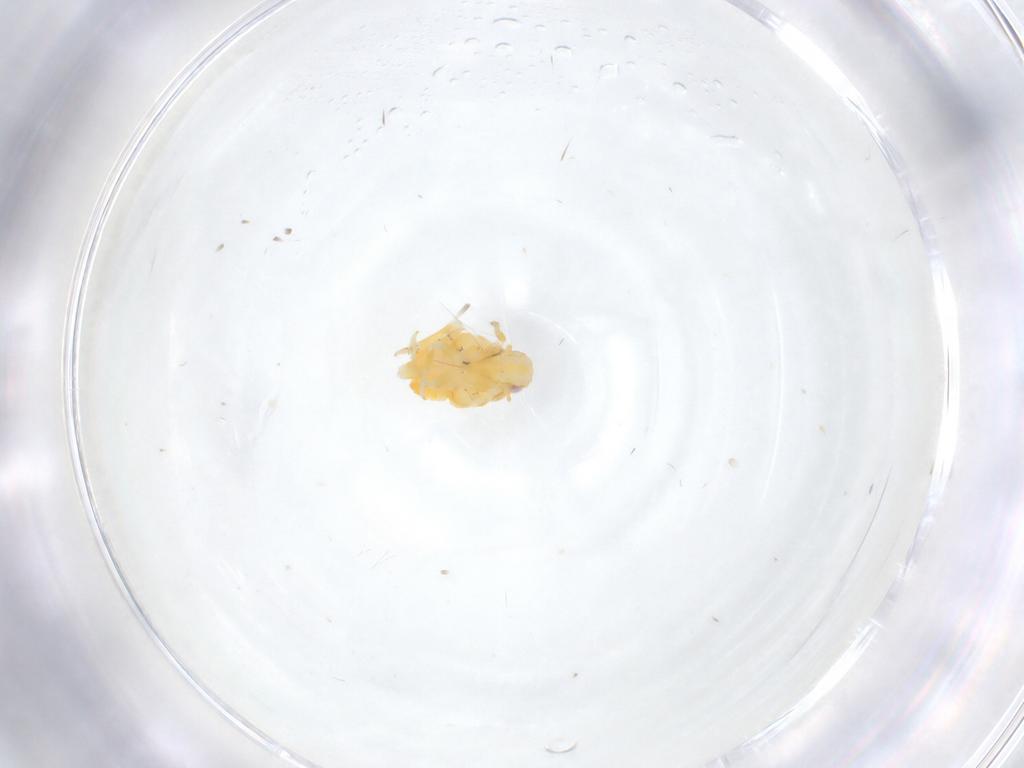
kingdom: Animalia
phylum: Arthropoda
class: Insecta
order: Hemiptera
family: Fulgoroidea_incertae_sedis
